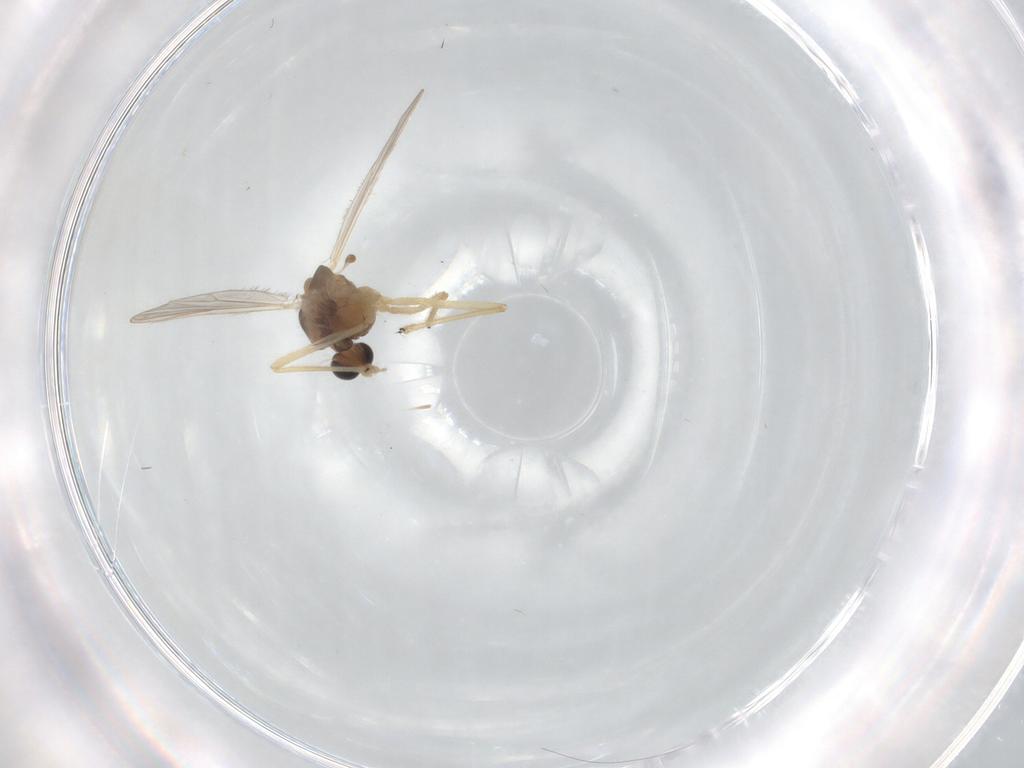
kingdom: Animalia
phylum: Arthropoda
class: Insecta
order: Diptera
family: Chironomidae
